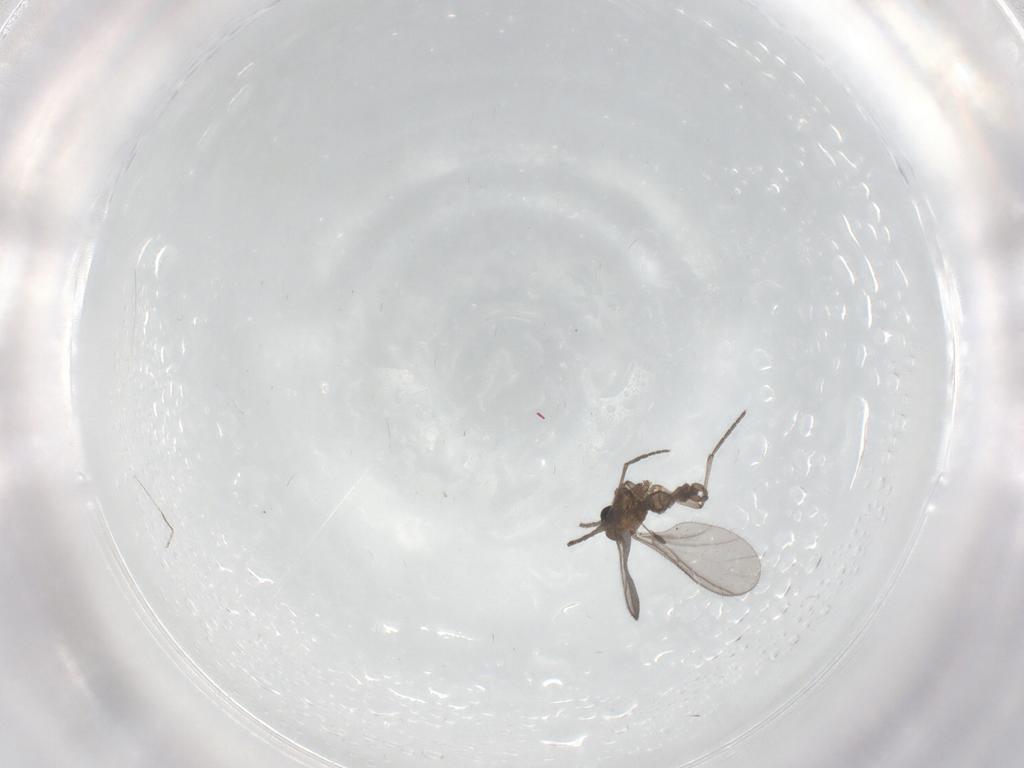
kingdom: Animalia
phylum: Arthropoda
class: Insecta
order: Diptera
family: Sciaridae
